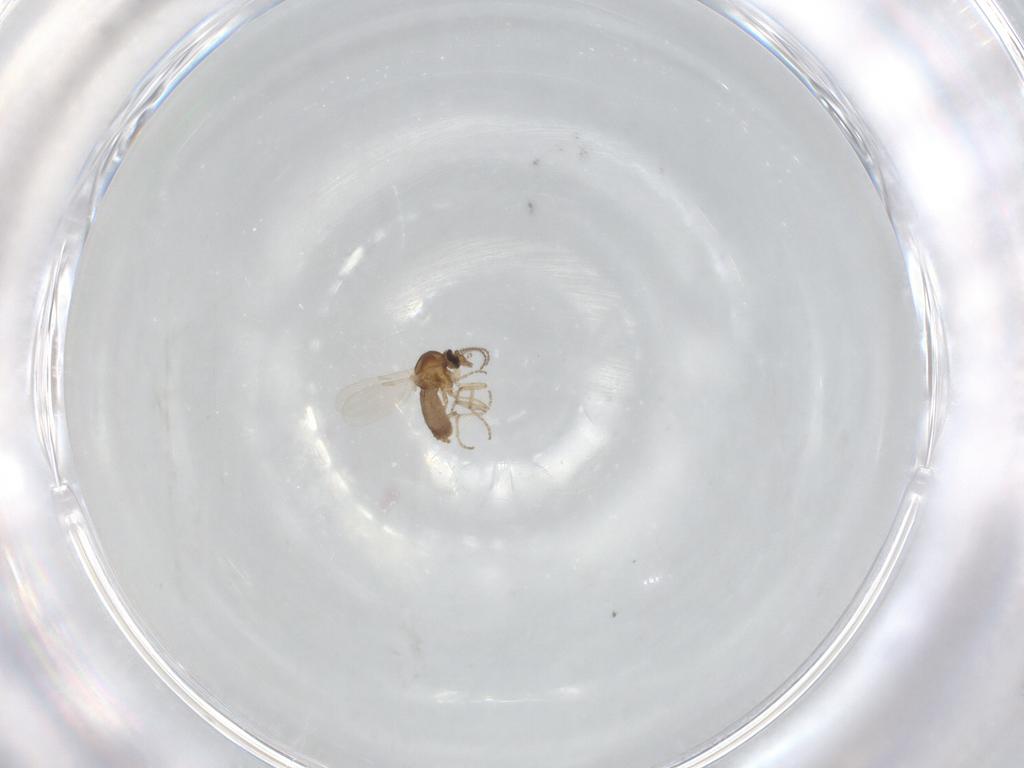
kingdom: Animalia
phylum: Arthropoda
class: Insecta
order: Diptera
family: Ceratopogonidae
